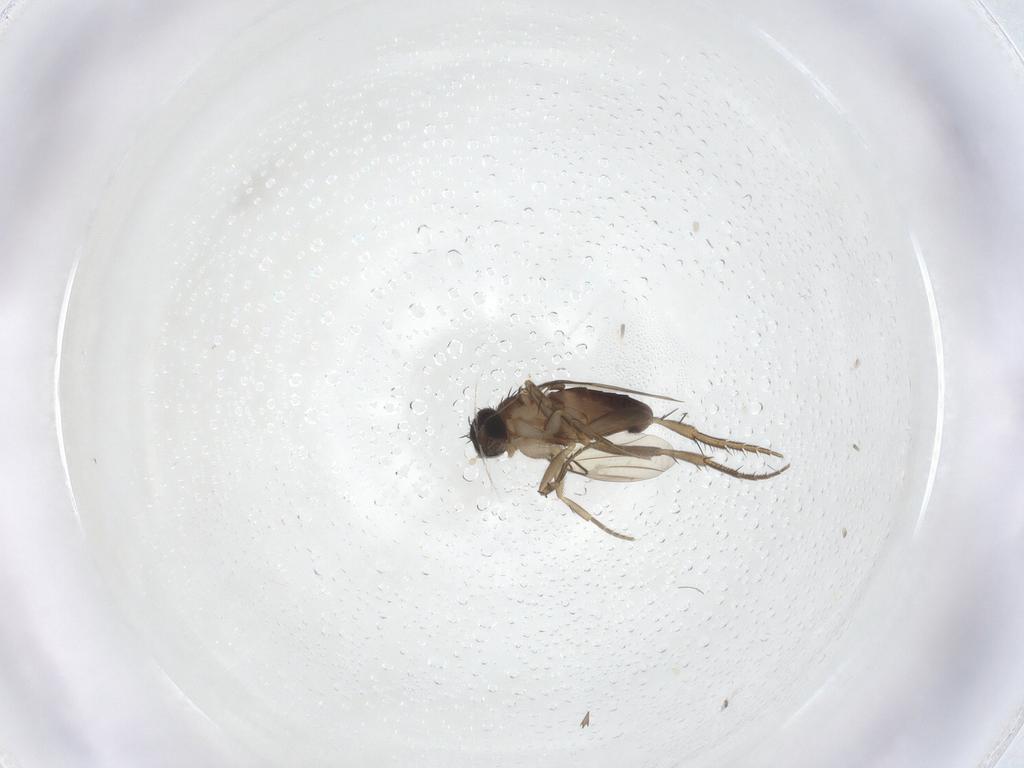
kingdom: Animalia
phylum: Arthropoda
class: Insecta
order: Diptera
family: Phoridae
